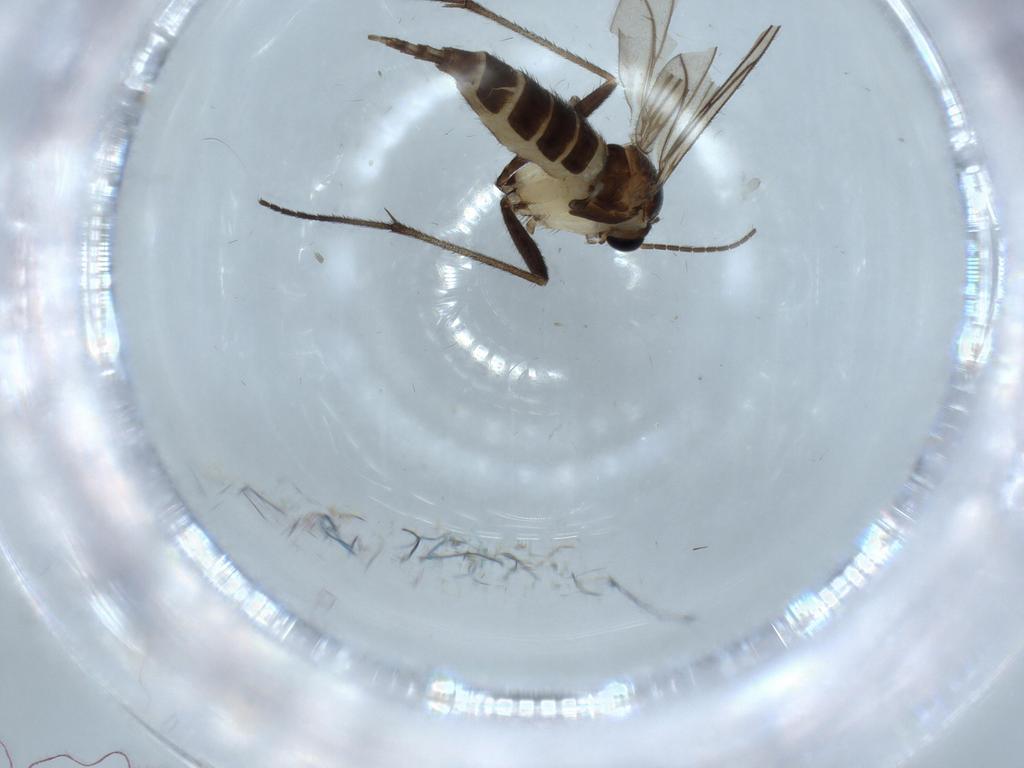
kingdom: Animalia
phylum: Arthropoda
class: Insecta
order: Diptera
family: Sciaridae
